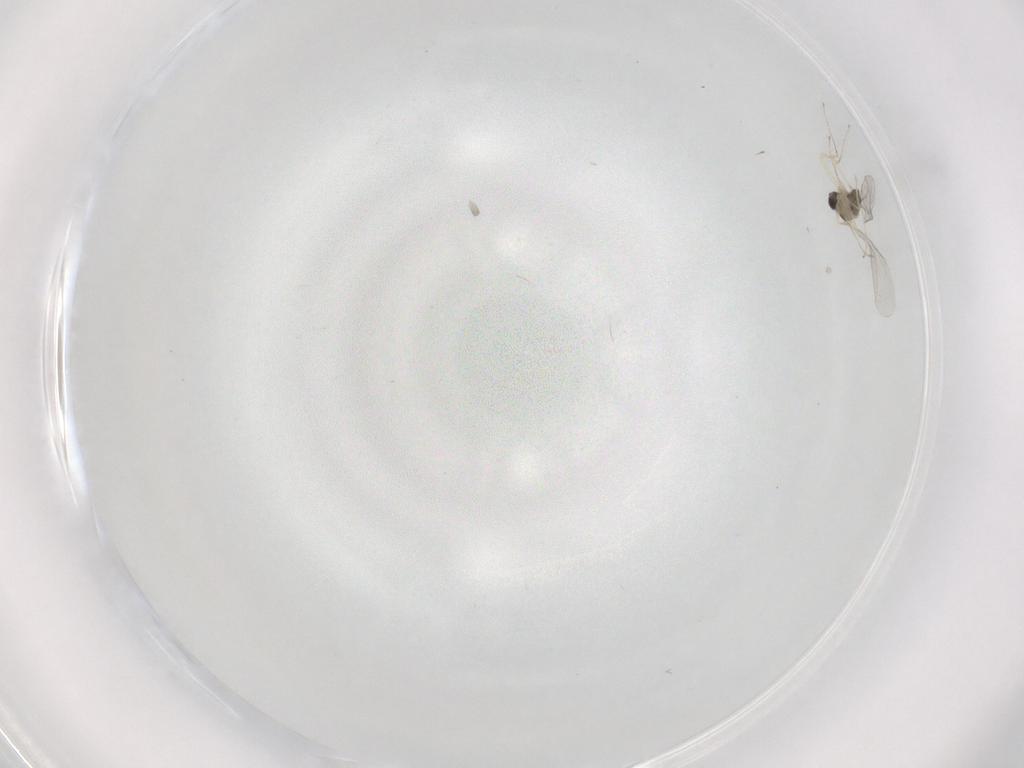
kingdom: Animalia
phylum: Arthropoda
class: Insecta
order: Diptera
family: Cecidomyiidae
